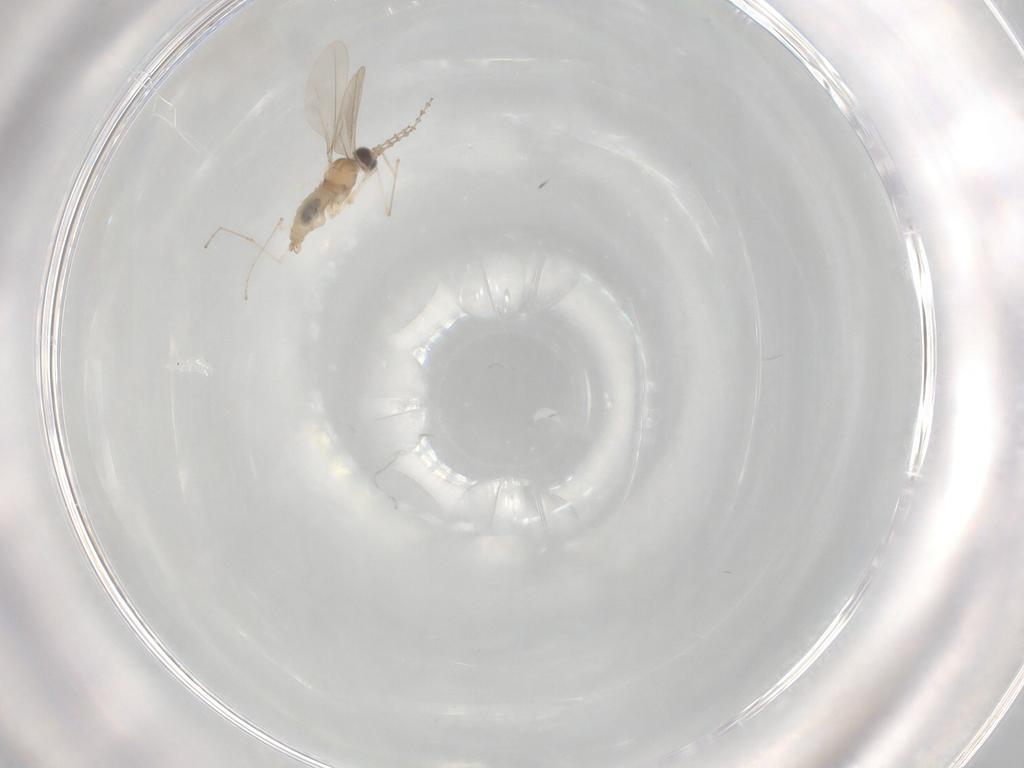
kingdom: Animalia
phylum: Arthropoda
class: Insecta
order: Diptera
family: Cecidomyiidae
